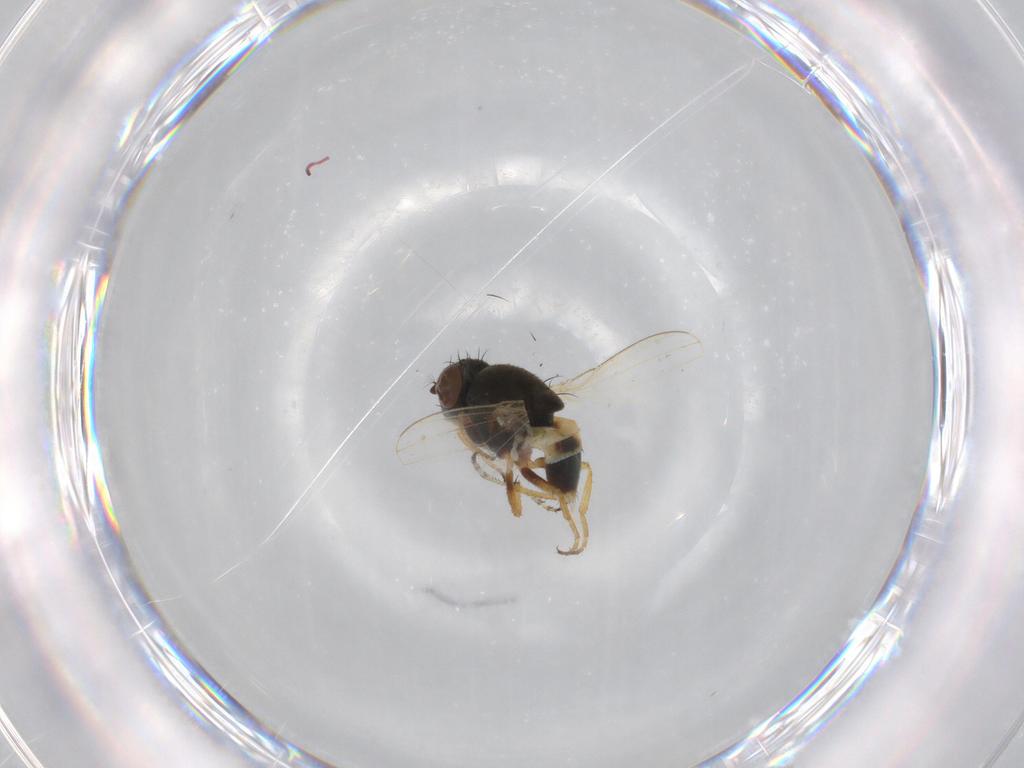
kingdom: Animalia
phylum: Arthropoda
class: Insecta
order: Diptera
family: Ephydridae
